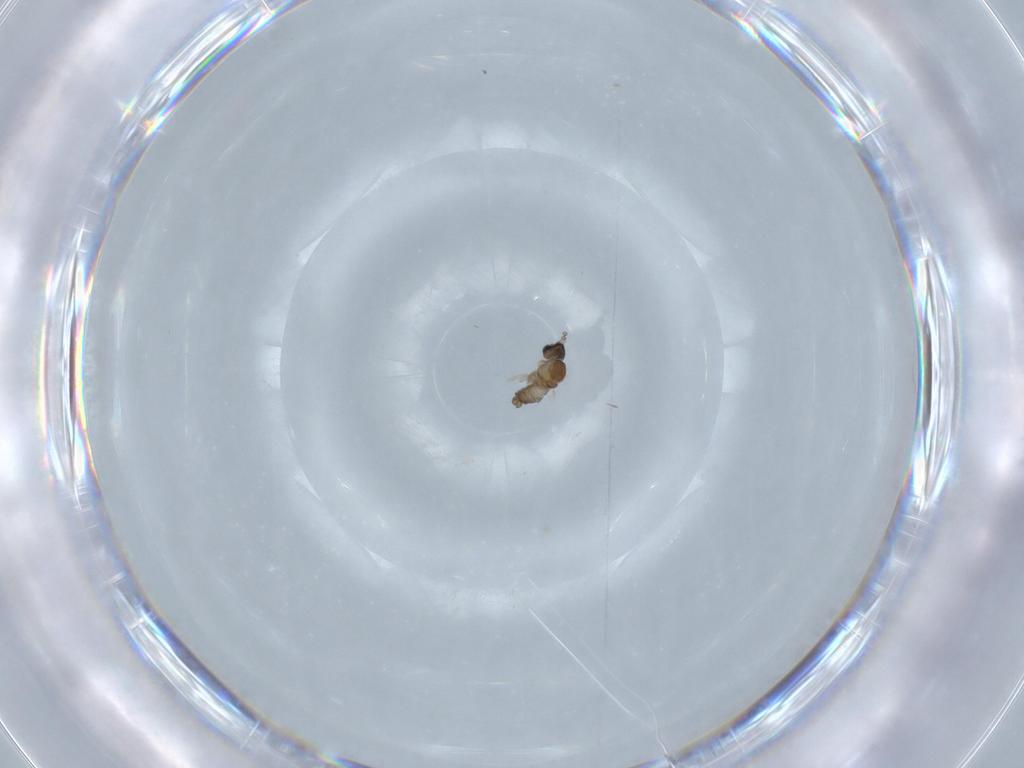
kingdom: Animalia
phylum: Arthropoda
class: Insecta
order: Diptera
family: Cecidomyiidae
